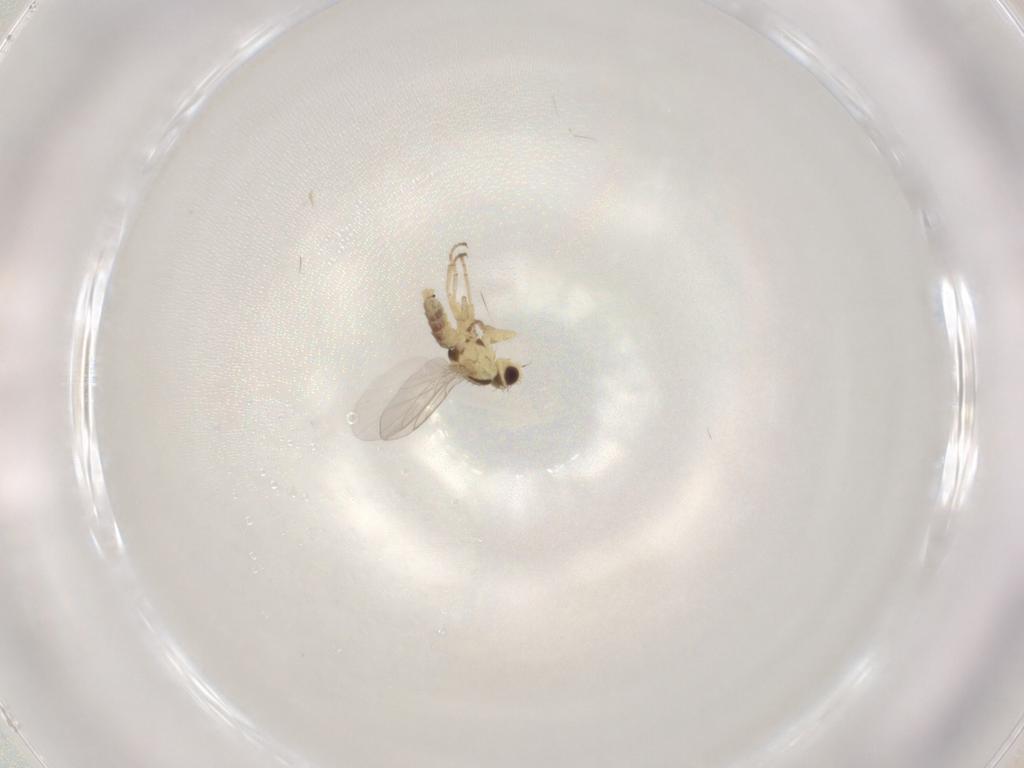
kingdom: Animalia
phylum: Arthropoda
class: Insecta
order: Diptera
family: Agromyzidae
